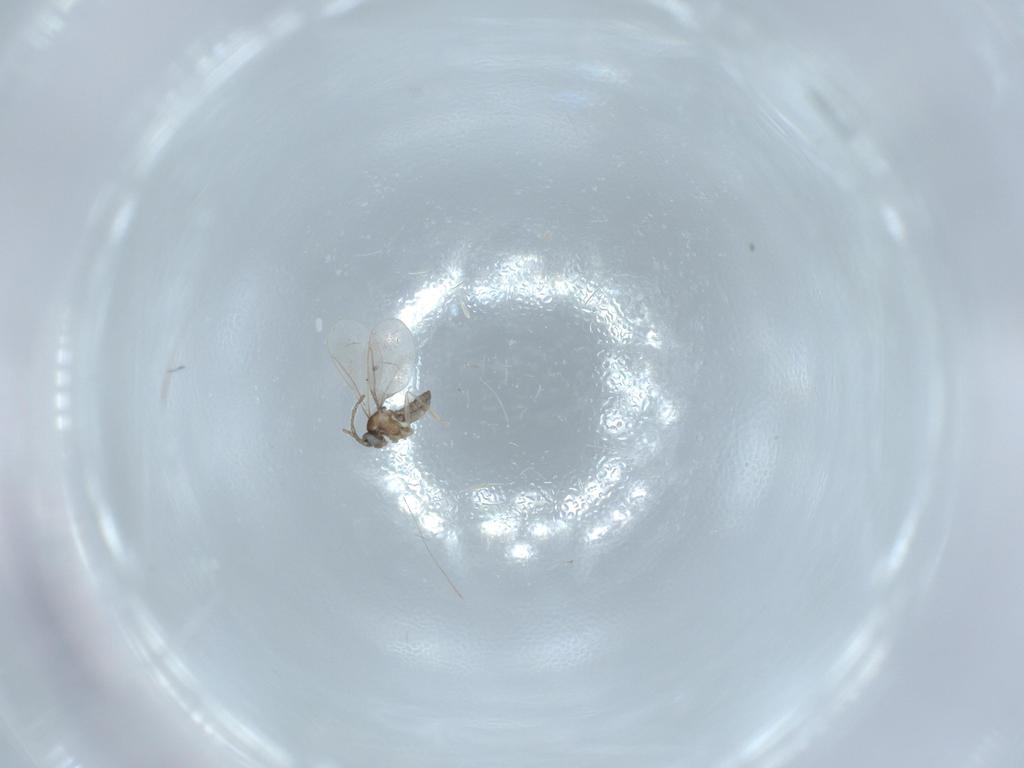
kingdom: Animalia
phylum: Arthropoda
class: Insecta
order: Diptera
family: Cecidomyiidae
